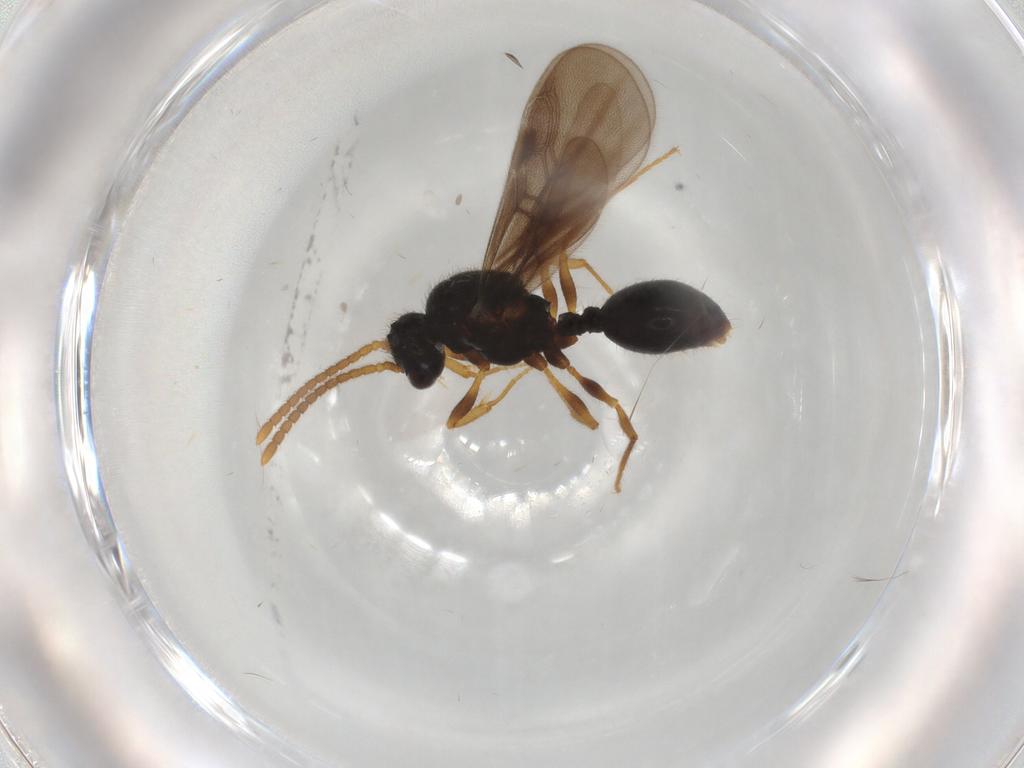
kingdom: Animalia
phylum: Arthropoda
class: Insecta
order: Hymenoptera
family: Formicidae
